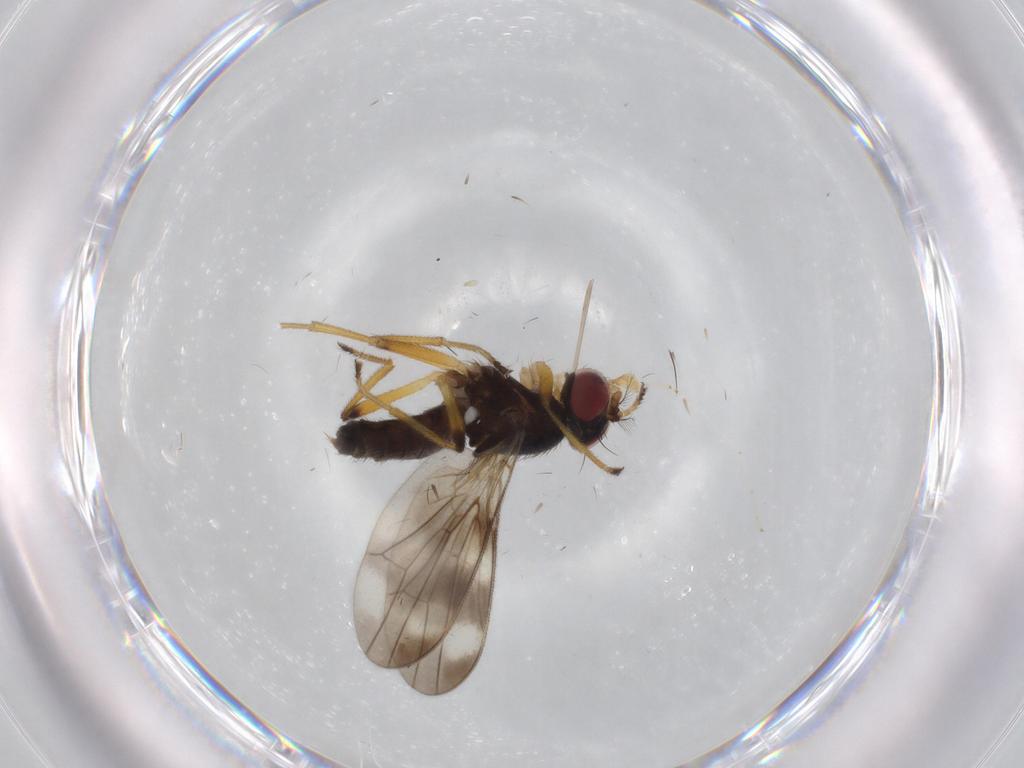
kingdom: Animalia
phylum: Arthropoda
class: Insecta
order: Diptera
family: Periscelididae
